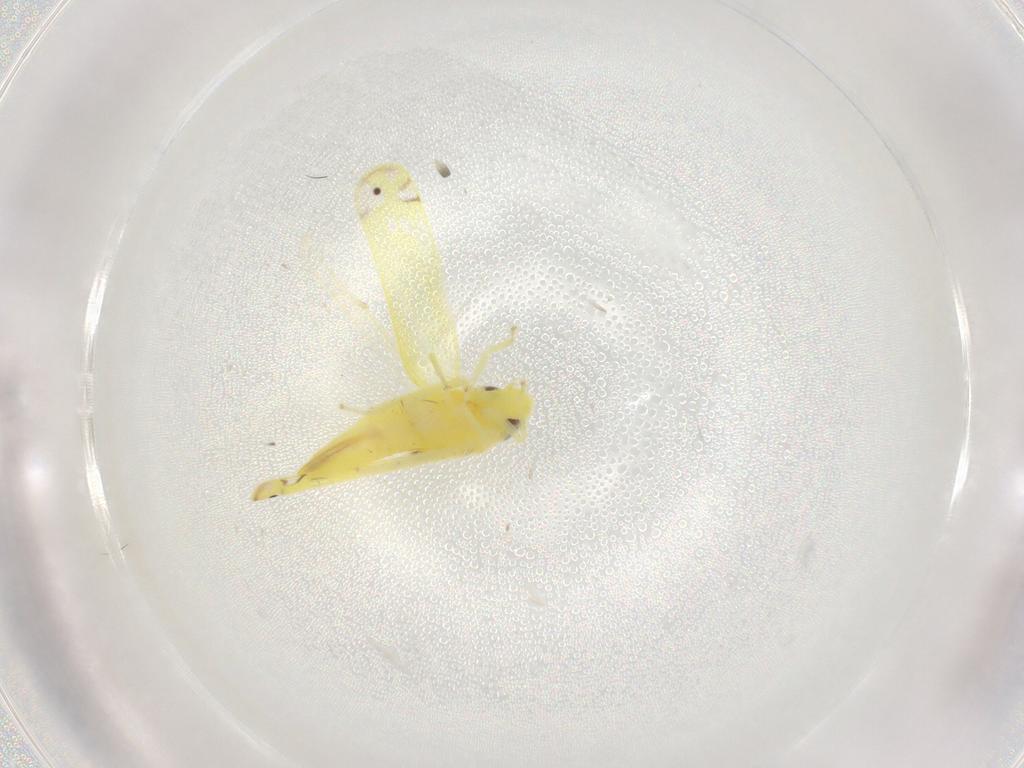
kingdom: Animalia
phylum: Arthropoda
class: Insecta
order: Hemiptera
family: Cicadellidae
